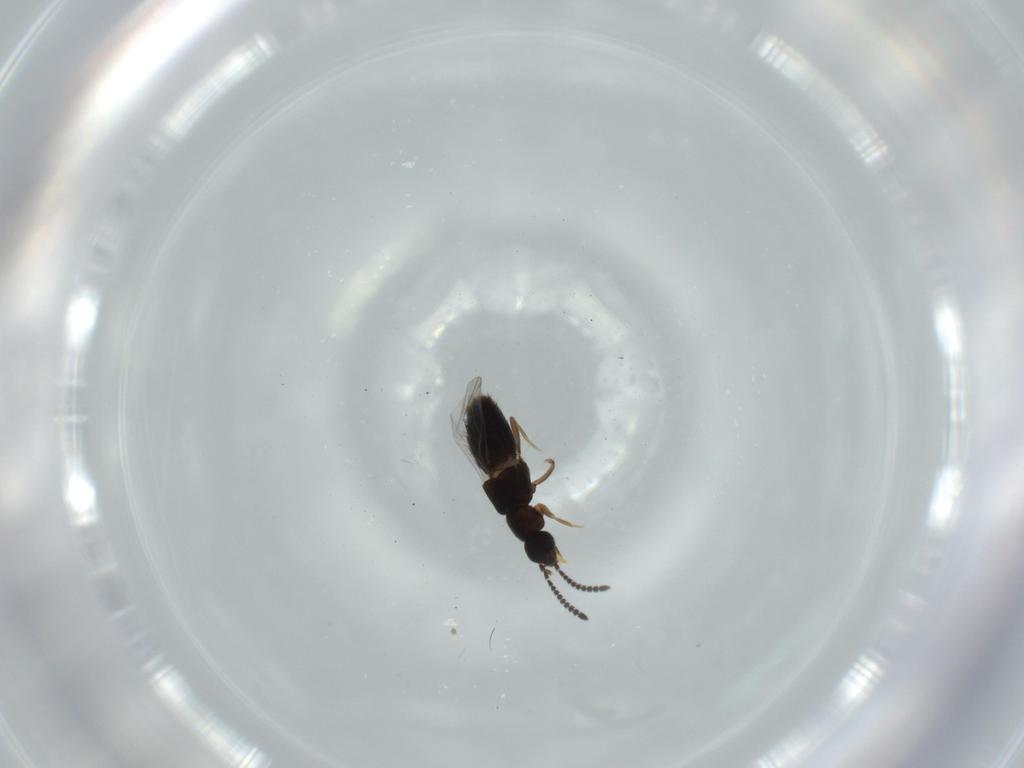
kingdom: Animalia
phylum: Arthropoda
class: Insecta
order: Coleoptera
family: Staphylinidae
